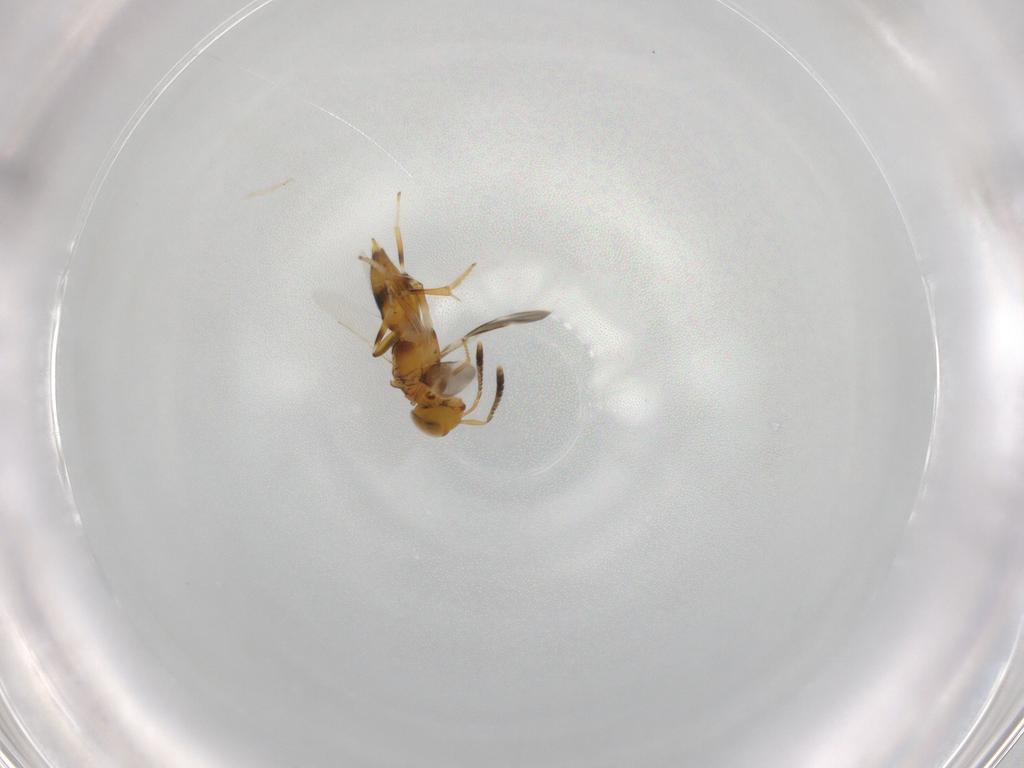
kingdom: Animalia
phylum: Arthropoda
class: Insecta
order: Hymenoptera
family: Encyrtidae
